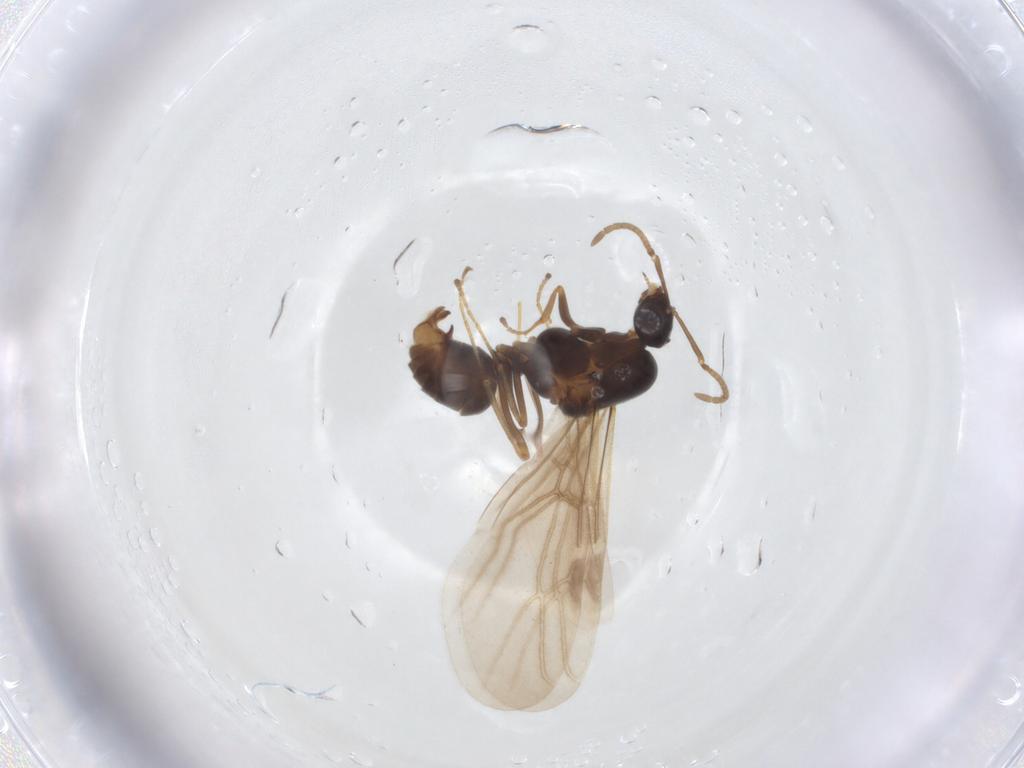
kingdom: Animalia
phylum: Arthropoda
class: Insecta
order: Hymenoptera
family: Formicidae
